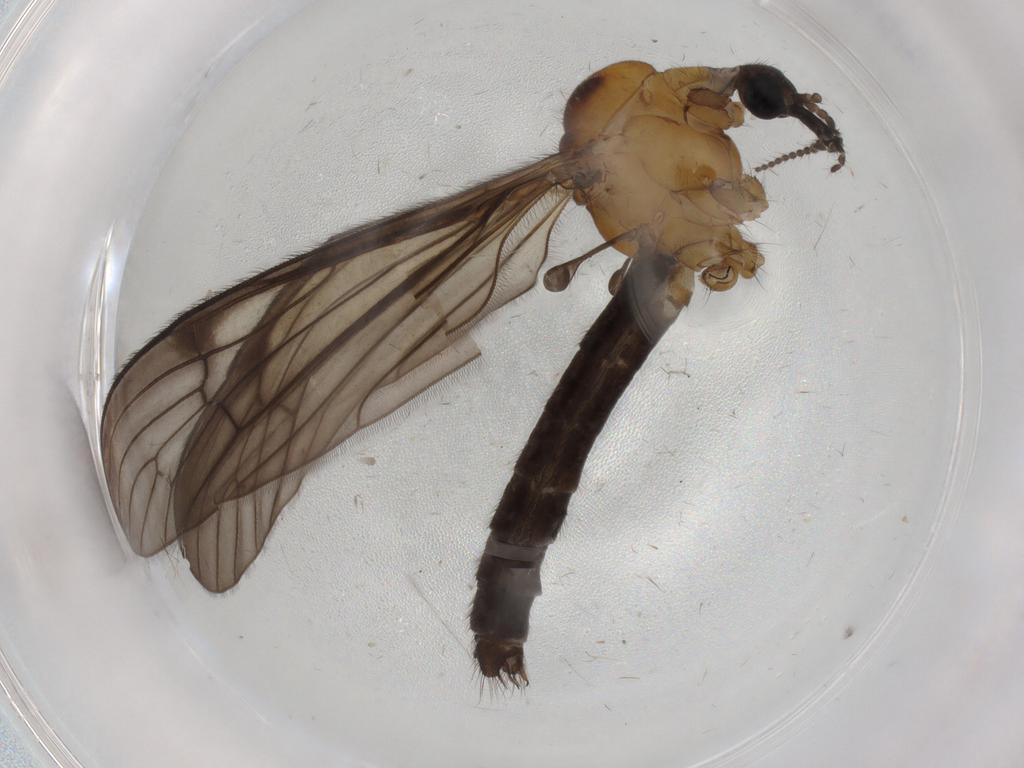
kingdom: Animalia
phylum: Arthropoda
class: Insecta
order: Diptera
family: Limoniidae
